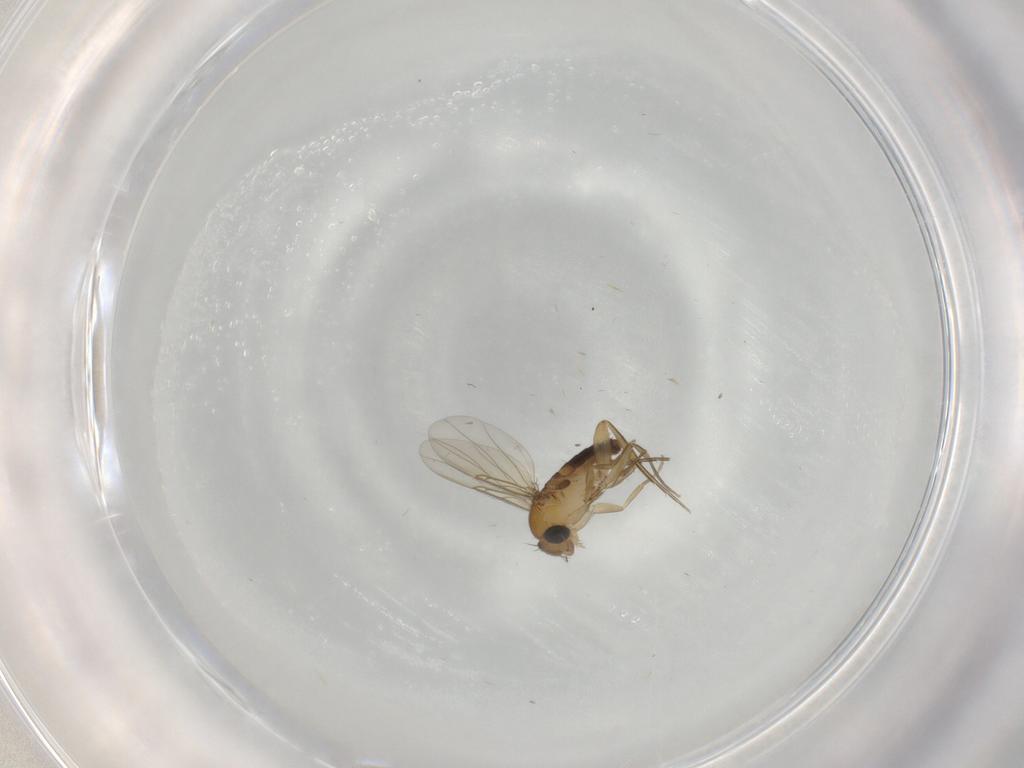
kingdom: Animalia
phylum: Arthropoda
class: Insecta
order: Diptera
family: Phoridae
